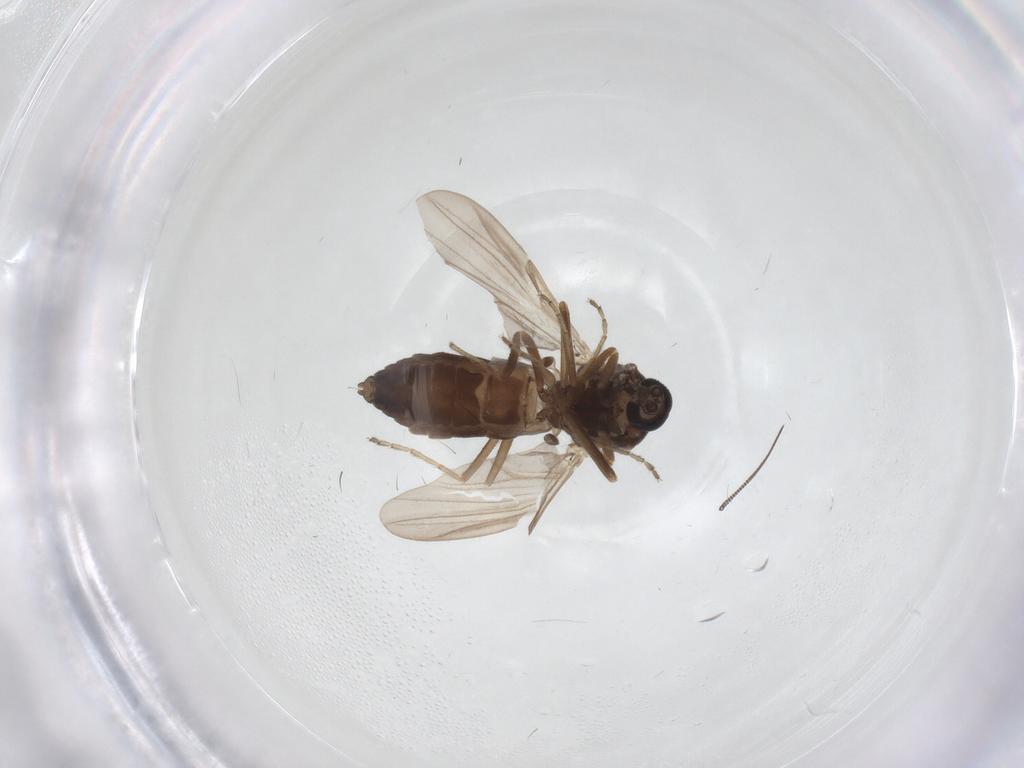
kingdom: Animalia
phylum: Arthropoda
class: Insecta
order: Diptera
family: Ceratopogonidae
